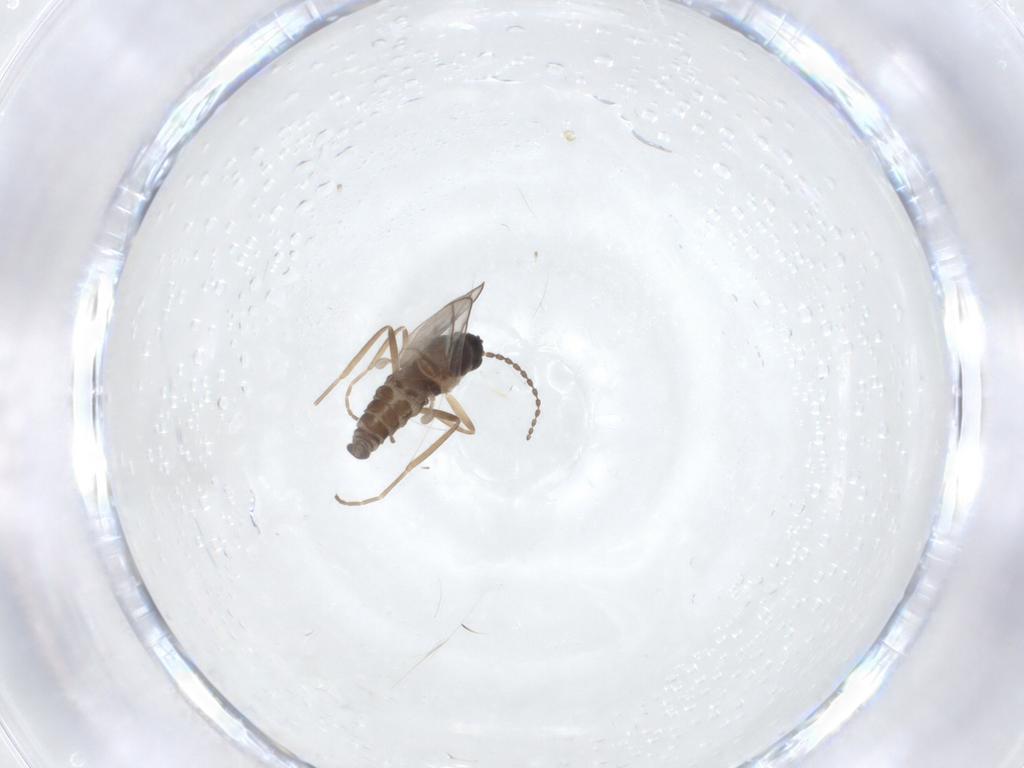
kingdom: Animalia
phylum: Arthropoda
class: Insecta
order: Diptera
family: Cecidomyiidae
